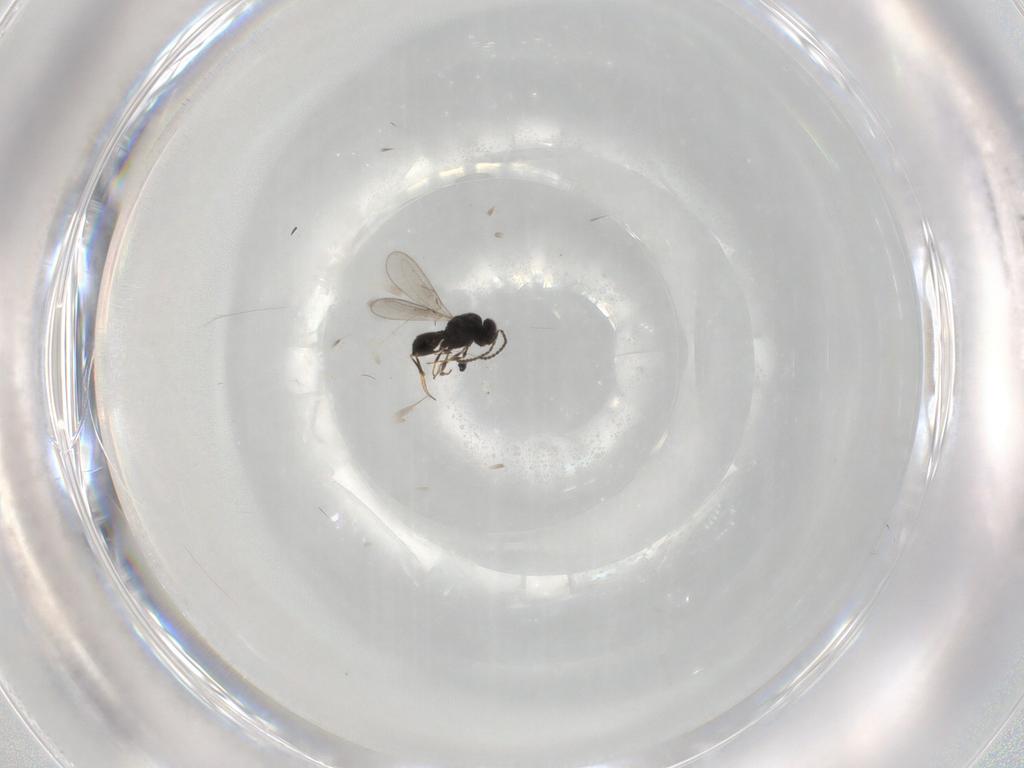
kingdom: Animalia
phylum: Arthropoda
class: Insecta
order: Hymenoptera
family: Scelionidae
